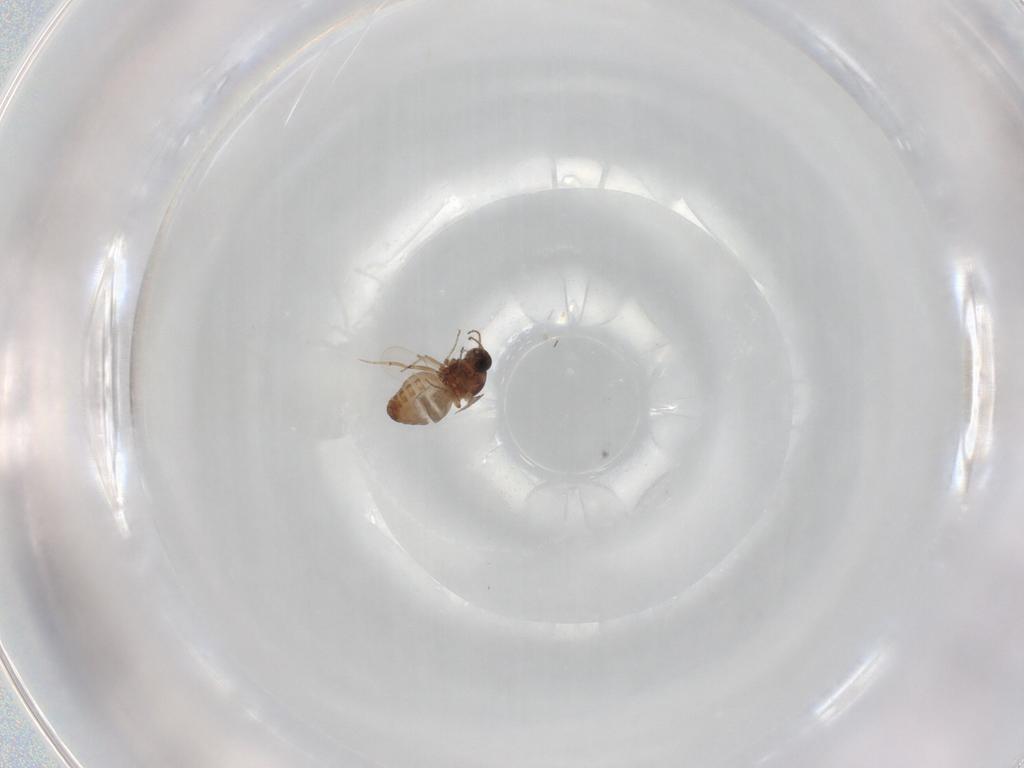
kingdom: Animalia
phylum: Arthropoda
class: Insecta
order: Diptera
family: Ceratopogonidae
